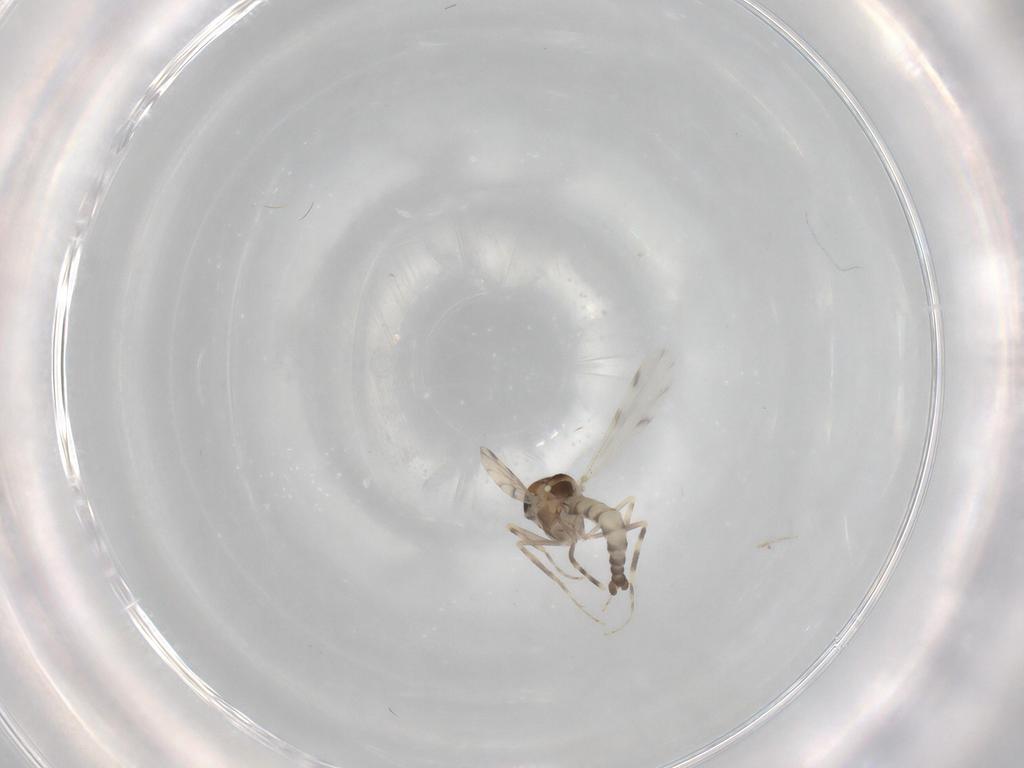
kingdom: Animalia
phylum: Arthropoda
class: Insecta
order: Diptera
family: Ceratopogonidae
